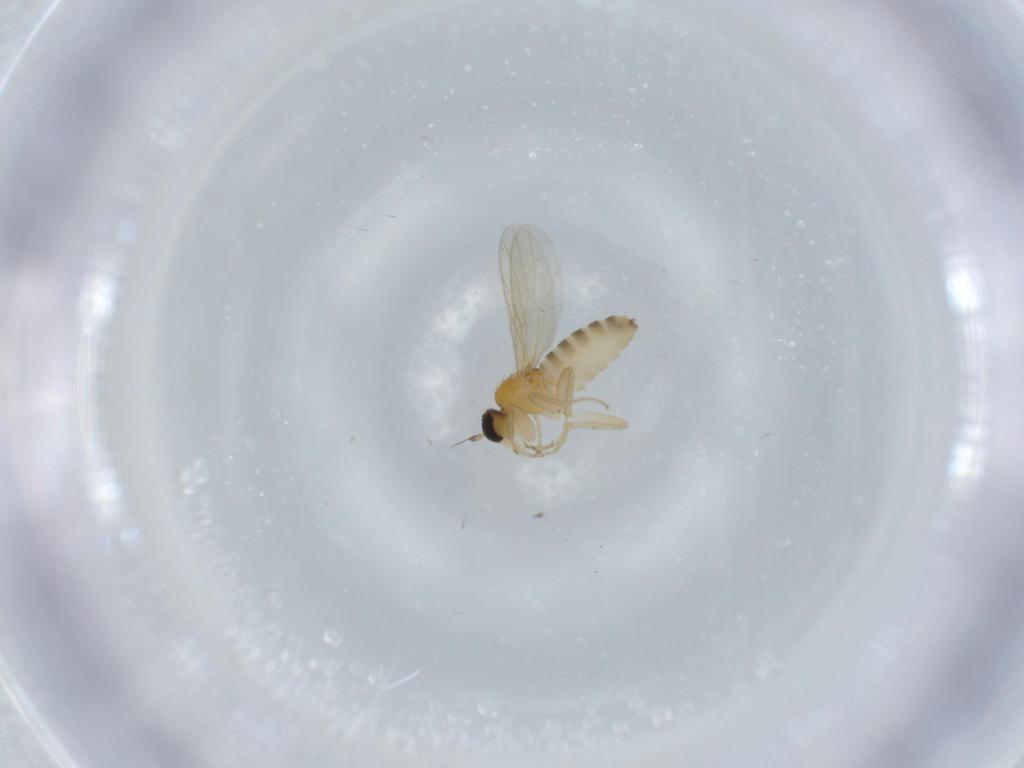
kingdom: Animalia
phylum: Arthropoda
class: Insecta
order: Diptera
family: Hybotidae
